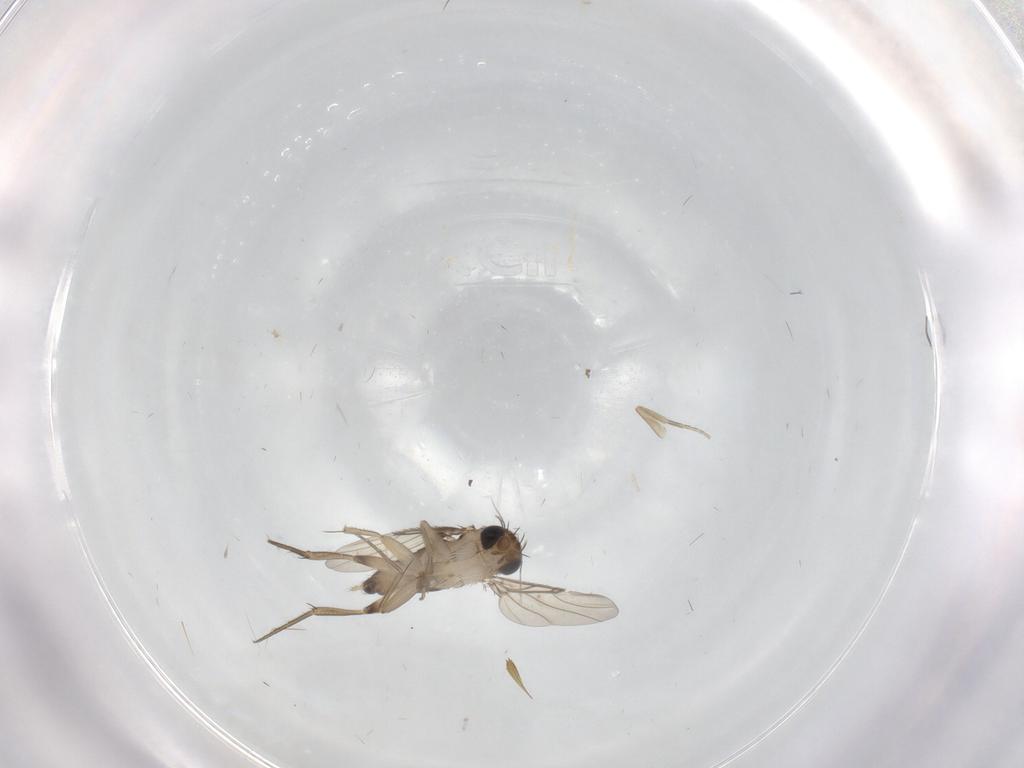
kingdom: Animalia
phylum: Arthropoda
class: Insecta
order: Diptera
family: Phoridae
